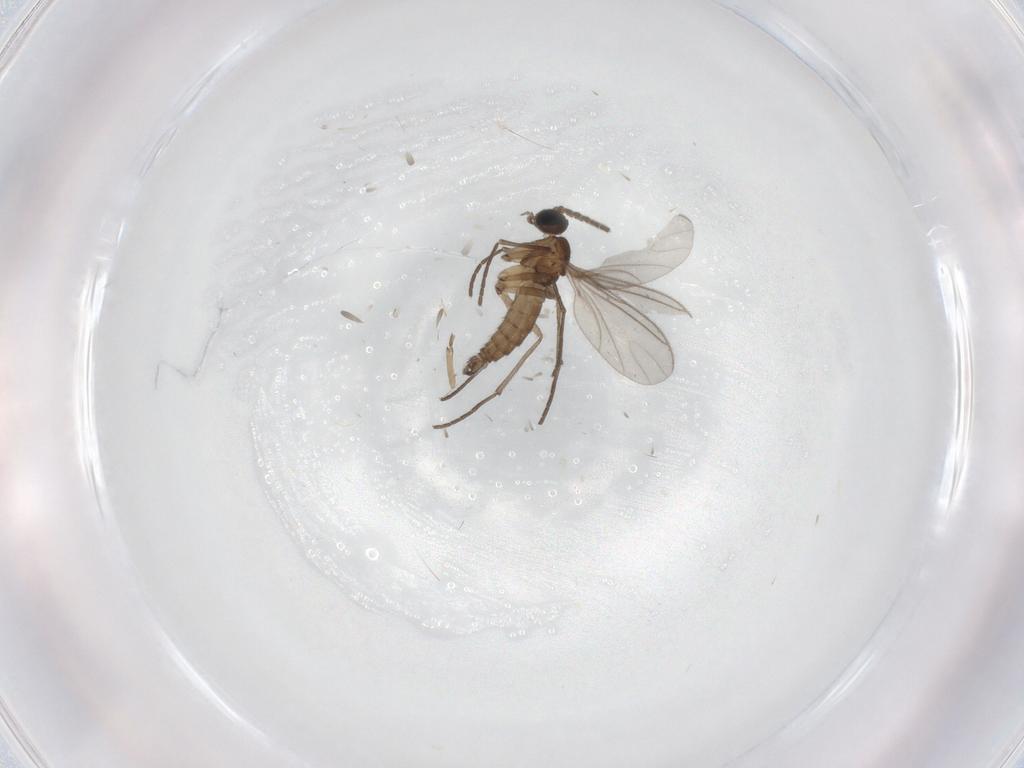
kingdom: Animalia
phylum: Arthropoda
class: Insecta
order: Diptera
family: Sciaridae
